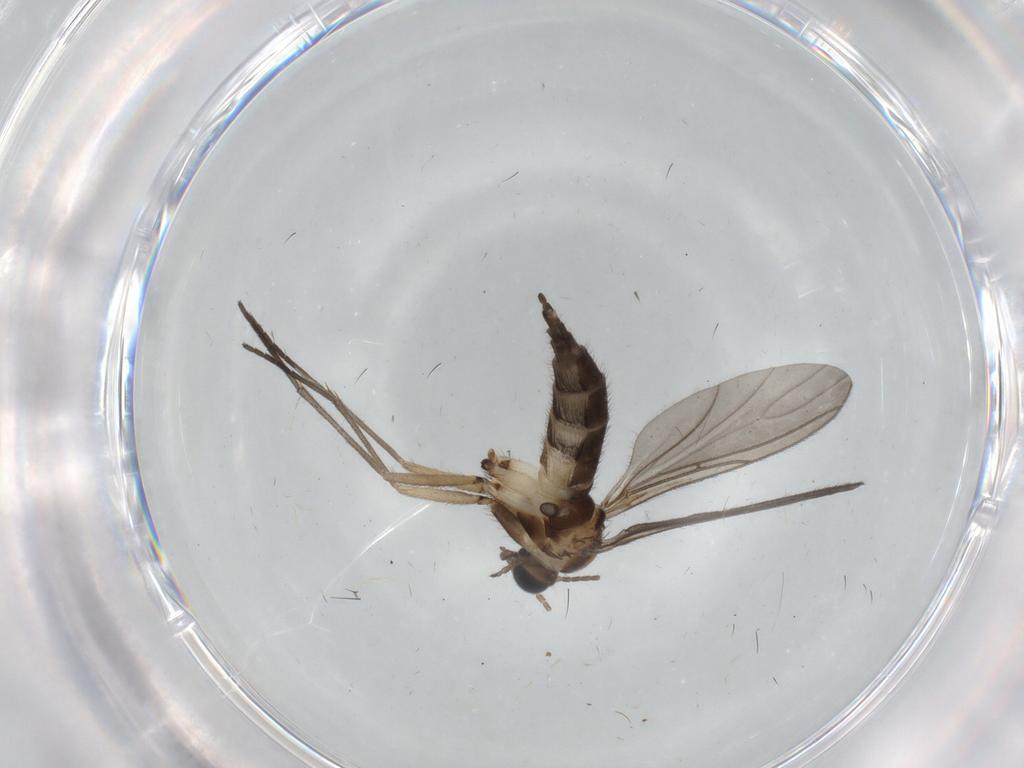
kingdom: Animalia
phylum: Arthropoda
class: Insecta
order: Diptera
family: Sciaridae
